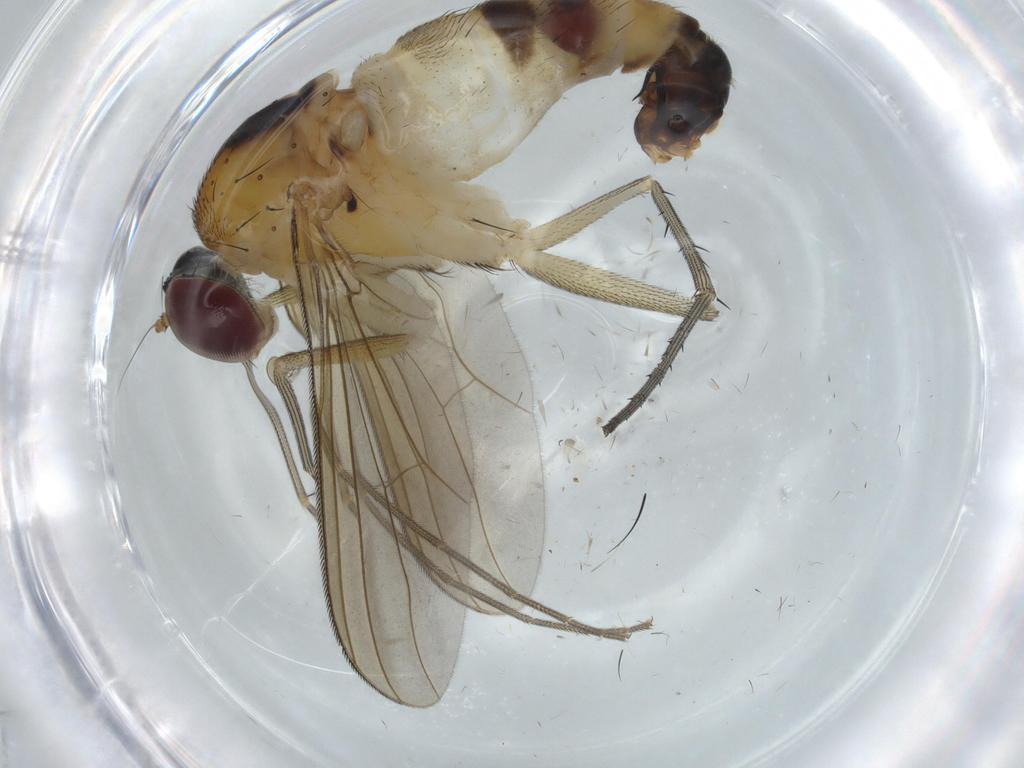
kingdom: Animalia
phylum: Arthropoda
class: Insecta
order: Diptera
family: Dolichopodidae
